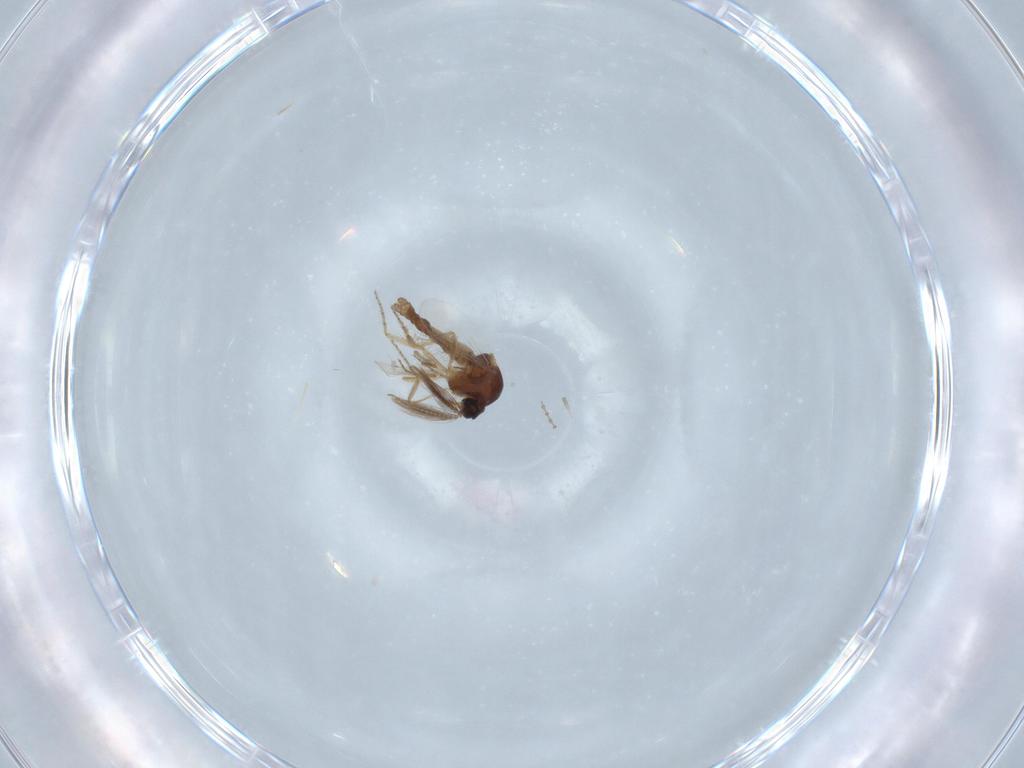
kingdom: Animalia
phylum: Arthropoda
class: Insecta
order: Diptera
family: Ceratopogonidae
